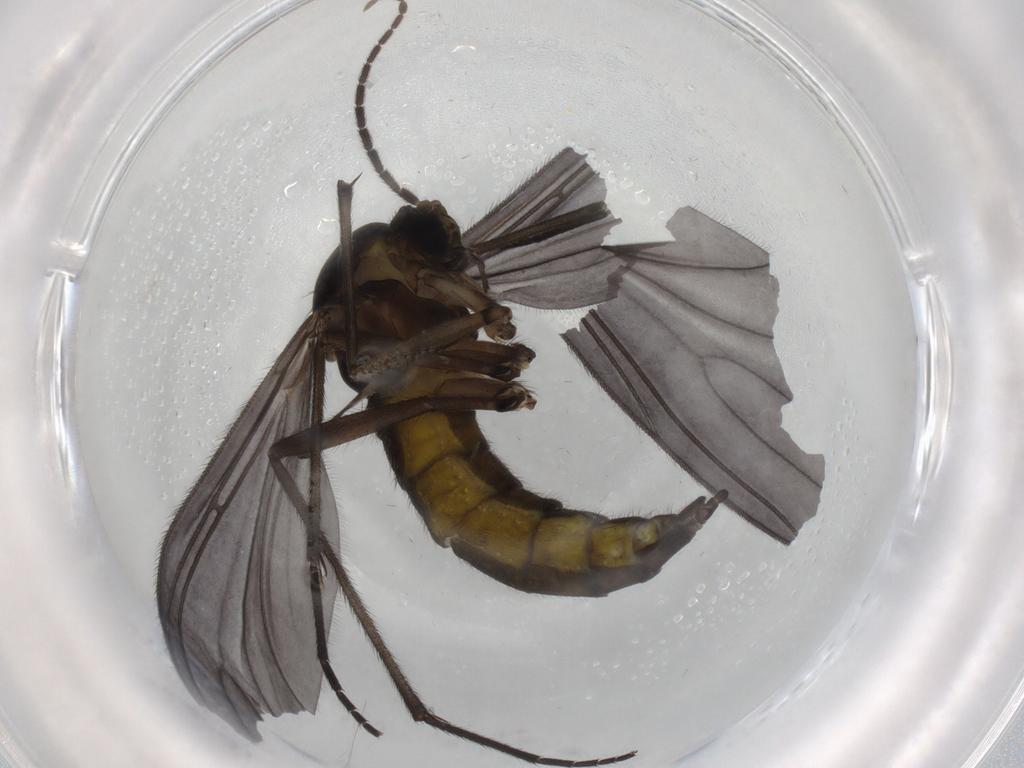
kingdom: Animalia
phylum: Arthropoda
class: Insecta
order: Diptera
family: Sciaridae
